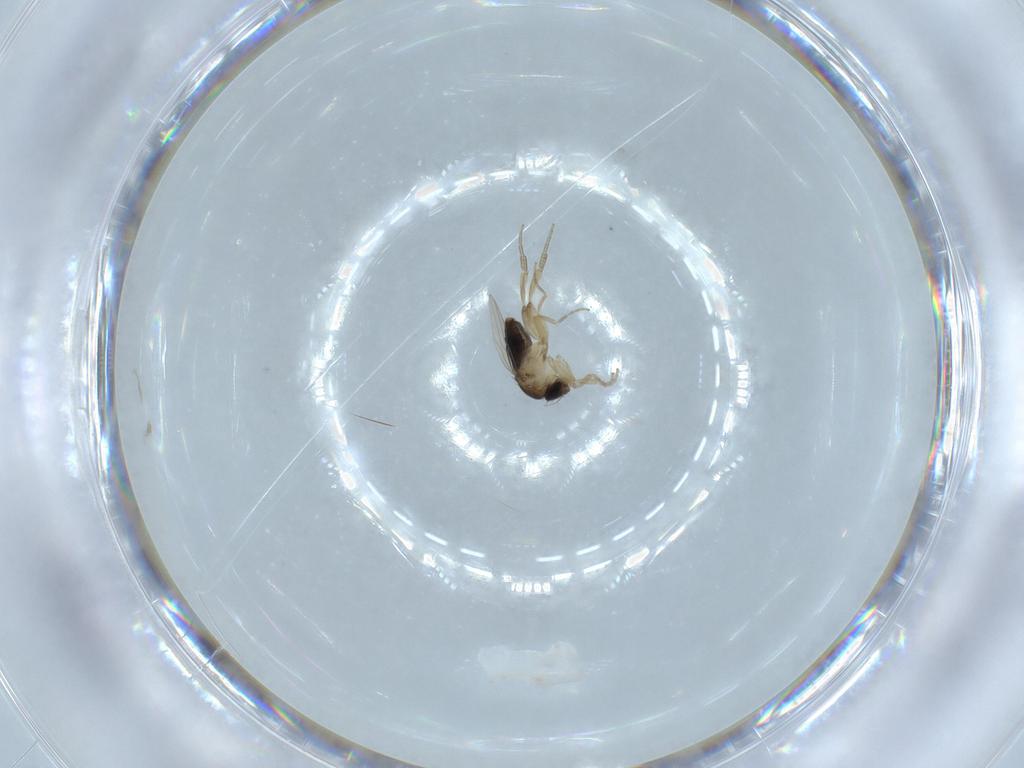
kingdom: Animalia
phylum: Arthropoda
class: Insecta
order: Diptera
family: Phoridae
